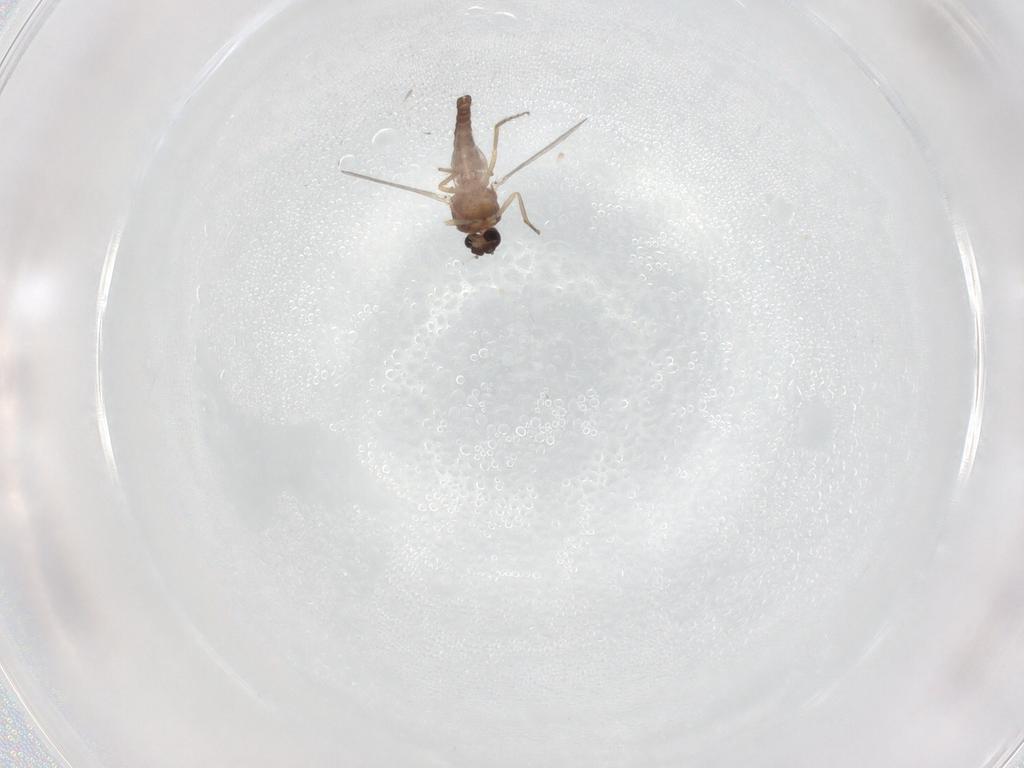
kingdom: Animalia
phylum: Arthropoda
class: Insecta
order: Diptera
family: Ceratopogonidae
